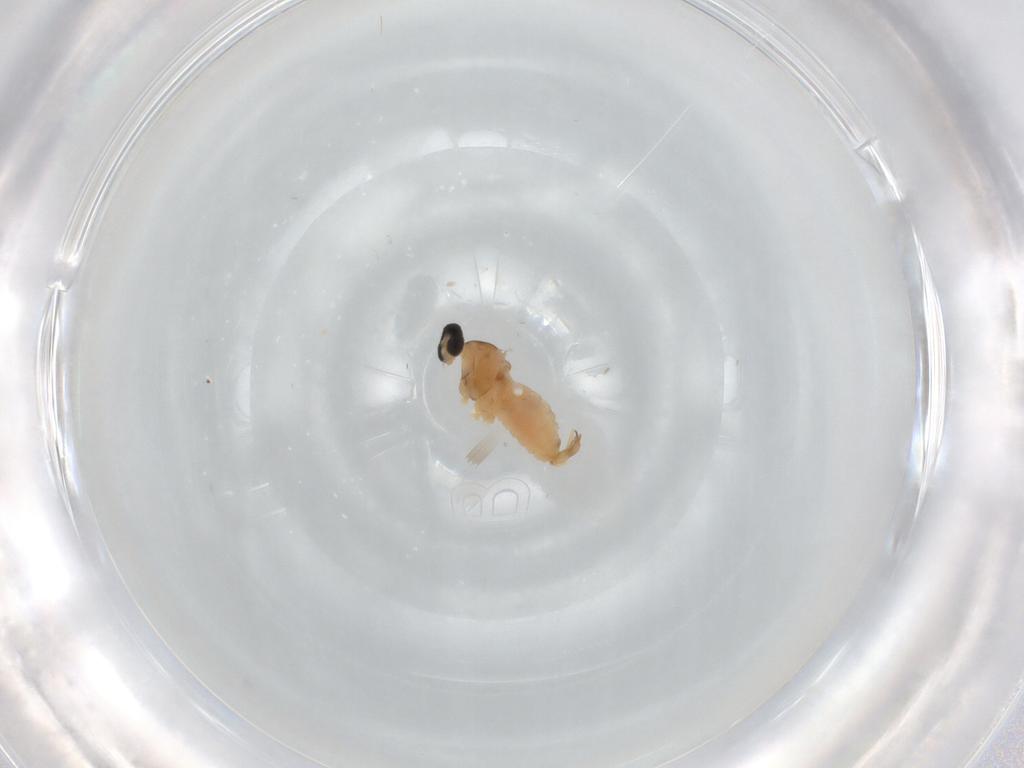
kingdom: Animalia
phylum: Arthropoda
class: Insecta
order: Diptera
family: Cecidomyiidae
